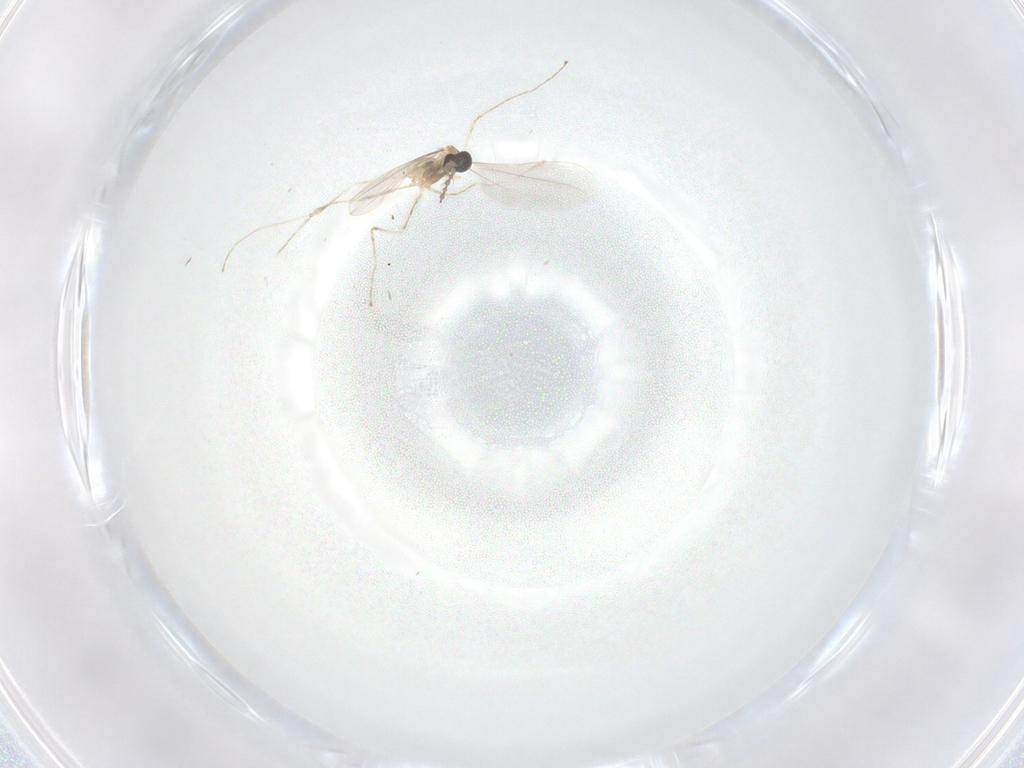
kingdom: Animalia
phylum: Arthropoda
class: Insecta
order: Diptera
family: Cecidomyiidae
